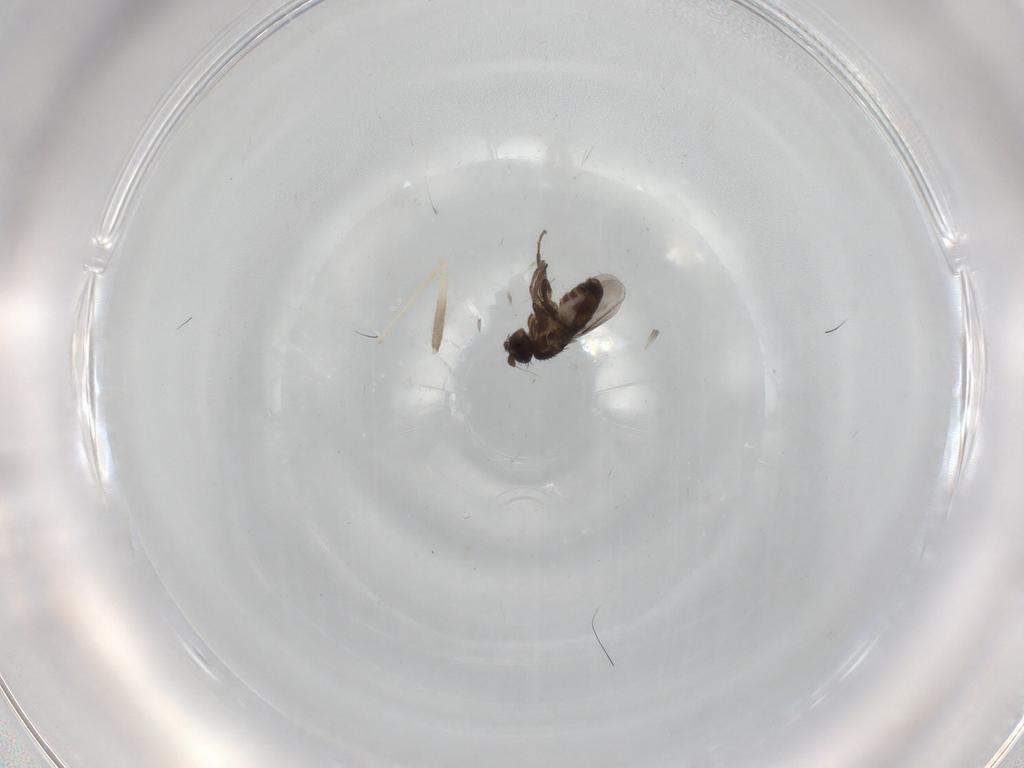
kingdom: Animalia
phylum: Arthropoda
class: Insecta
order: Diptera
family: Chironomidae
